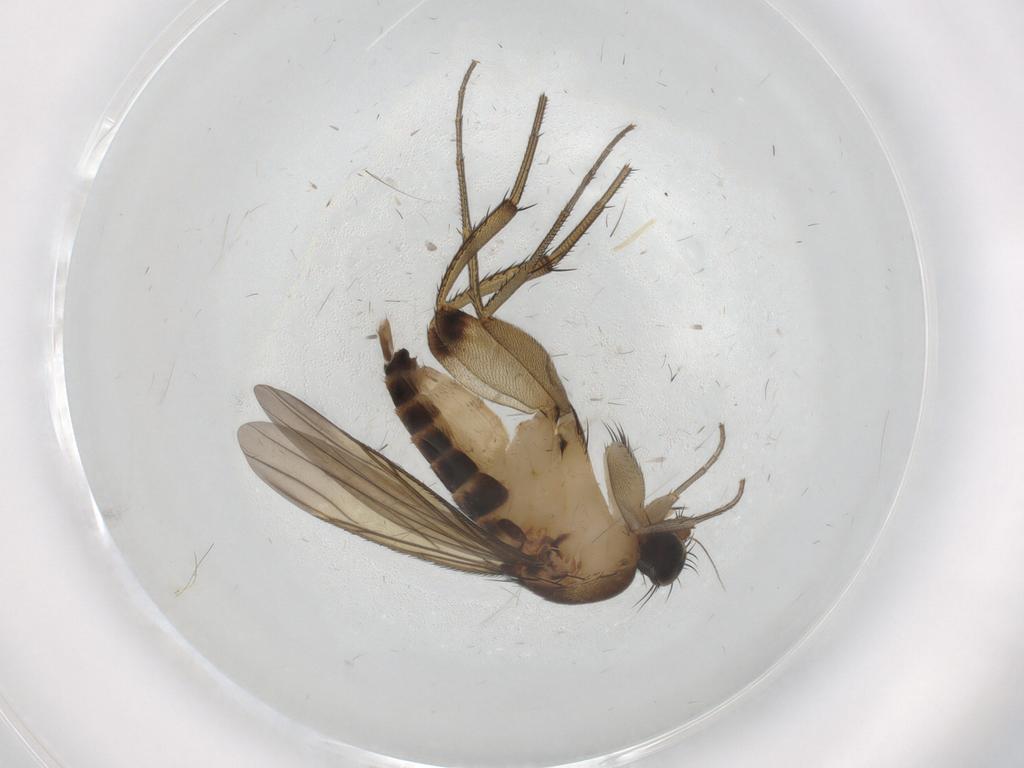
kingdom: Animalia
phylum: Arthropoda
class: Insecta
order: Diptera
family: Phoridae
